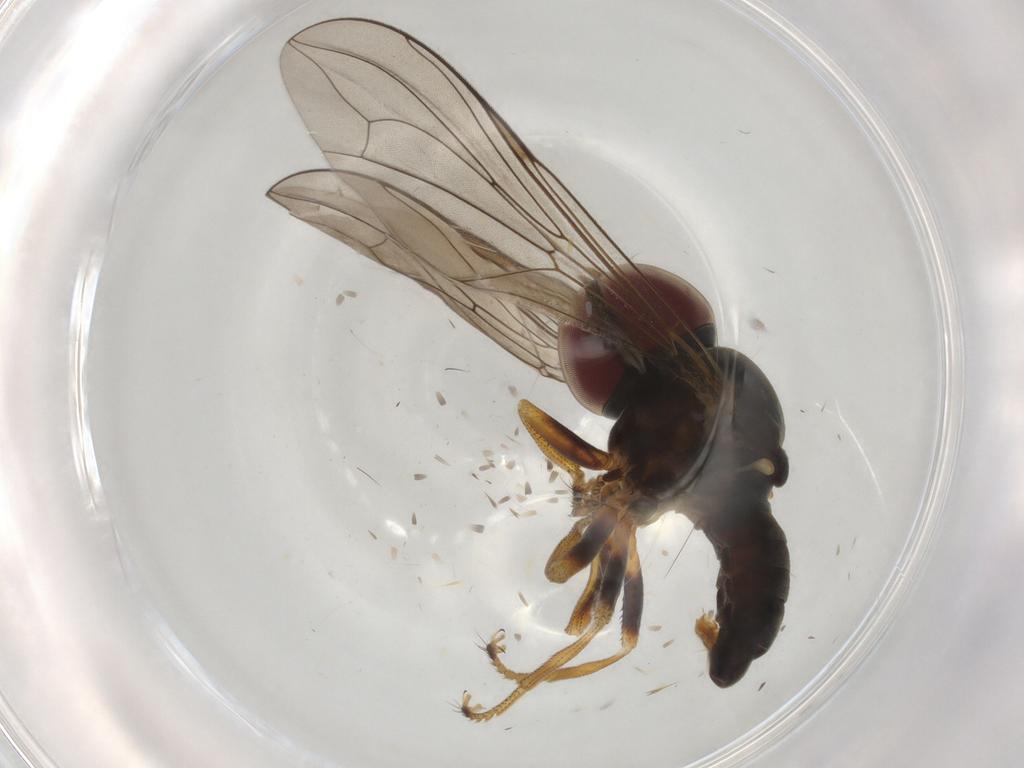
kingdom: Animalia
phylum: Arthropoda
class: Insecta
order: Diptera
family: Cecidomyiidae
